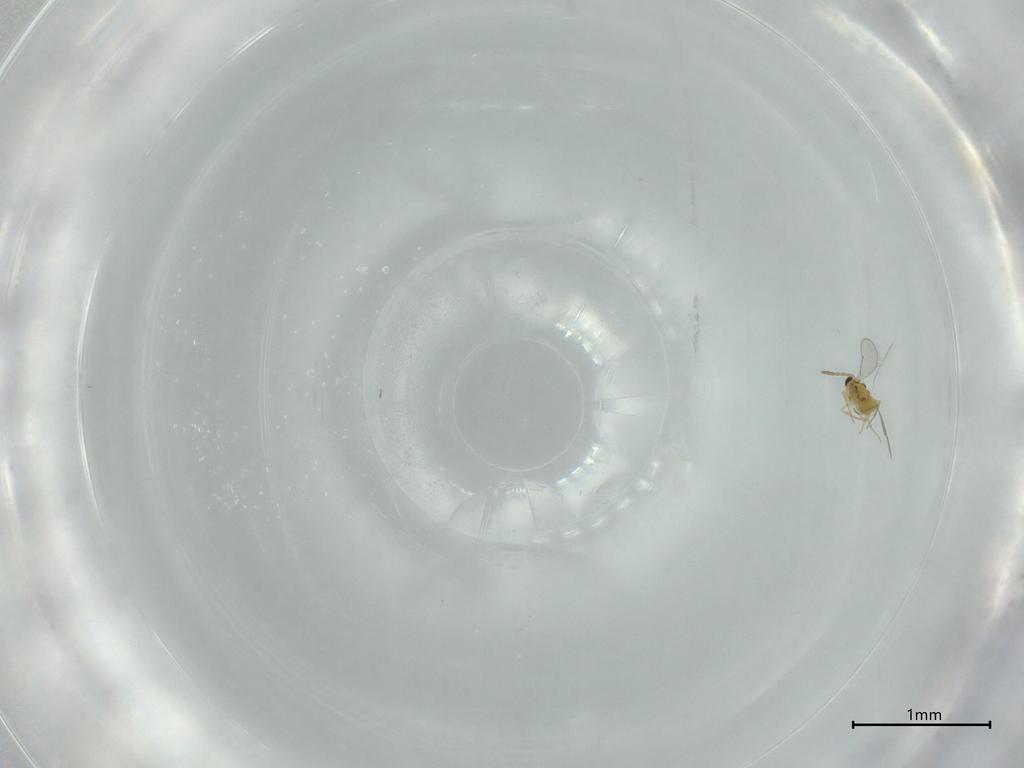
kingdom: Animalia
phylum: Arthropoda
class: Insecta
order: Hymenoptera
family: Aphelinidae
